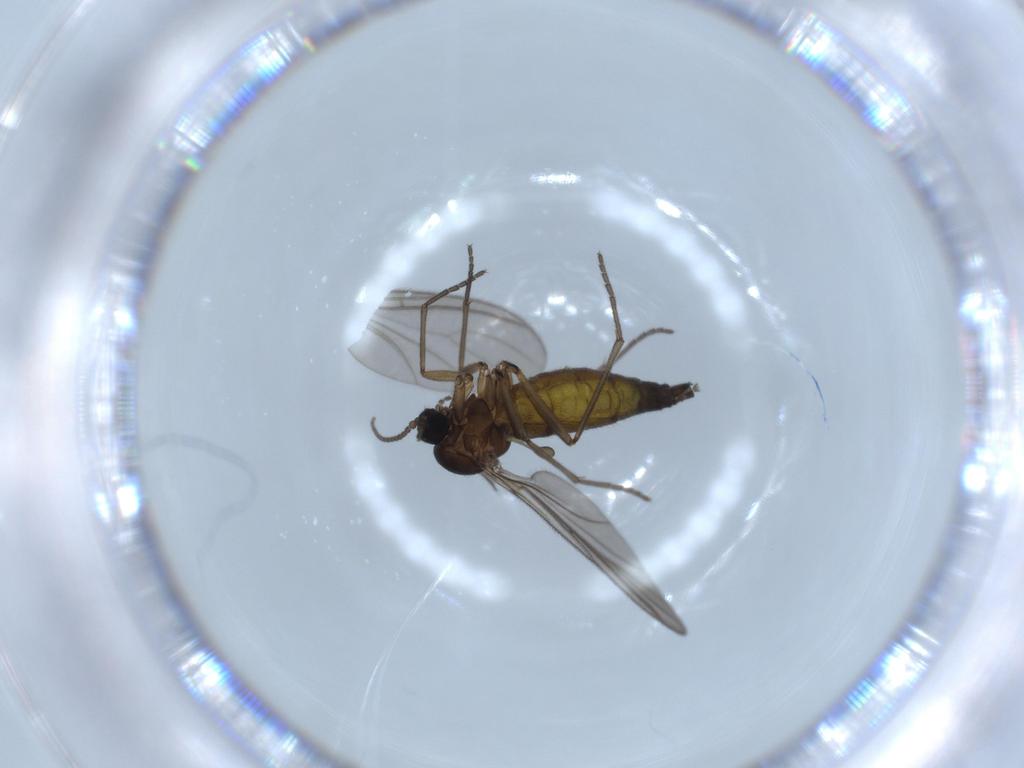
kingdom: Animalia
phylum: Arthropoda
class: Insecta
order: Diptera
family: Sciaridae
